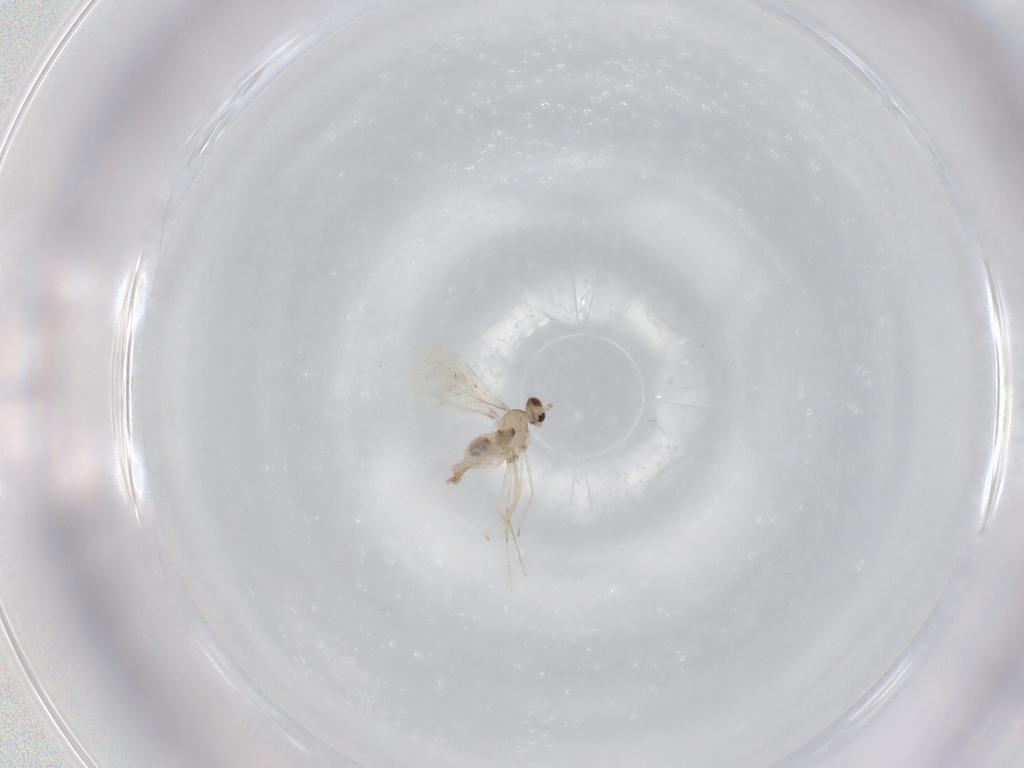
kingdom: Animalia
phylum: Arthropoda
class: Insecta
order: Diptera
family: Cecidomyiidae
